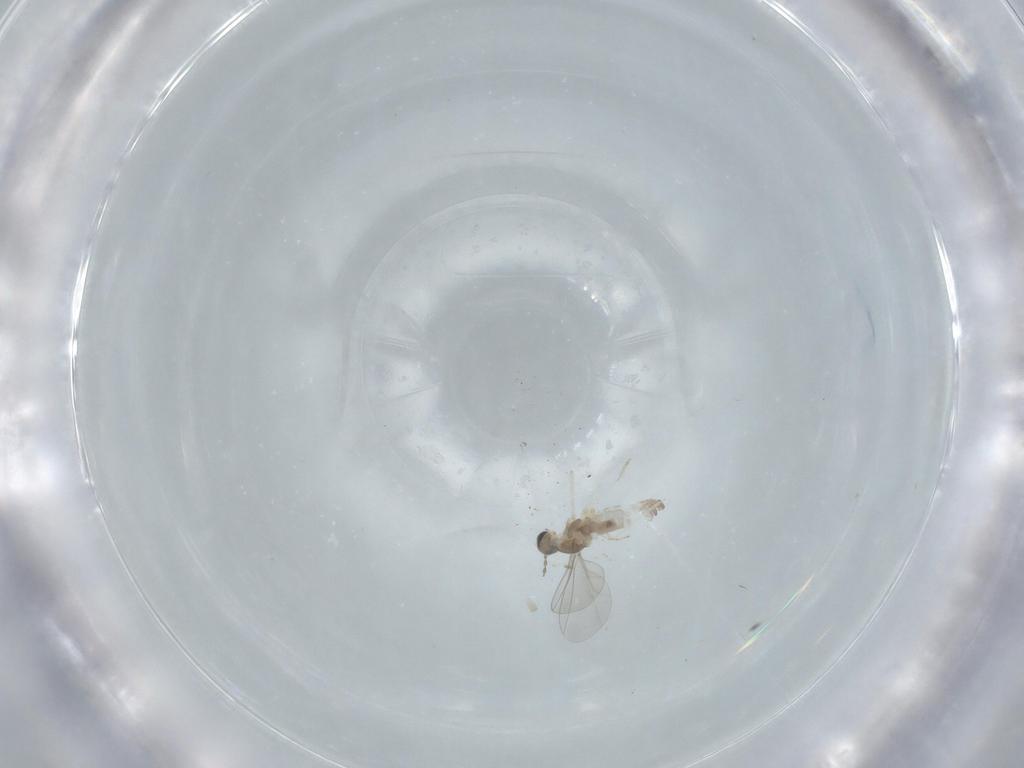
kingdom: Animalia
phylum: Arthropoda
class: Insecta
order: Diptera
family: Cecidomyiidae
